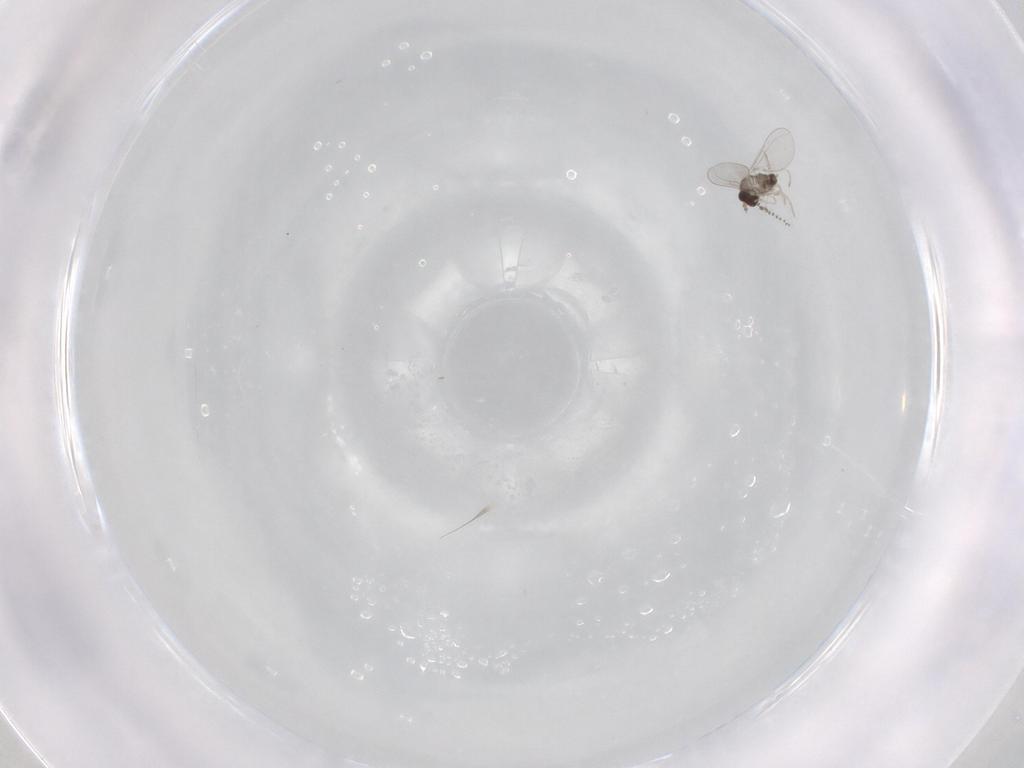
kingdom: Animalia
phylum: Arthropoda
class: Insecta
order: Diptera
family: Cecidomyiidae
